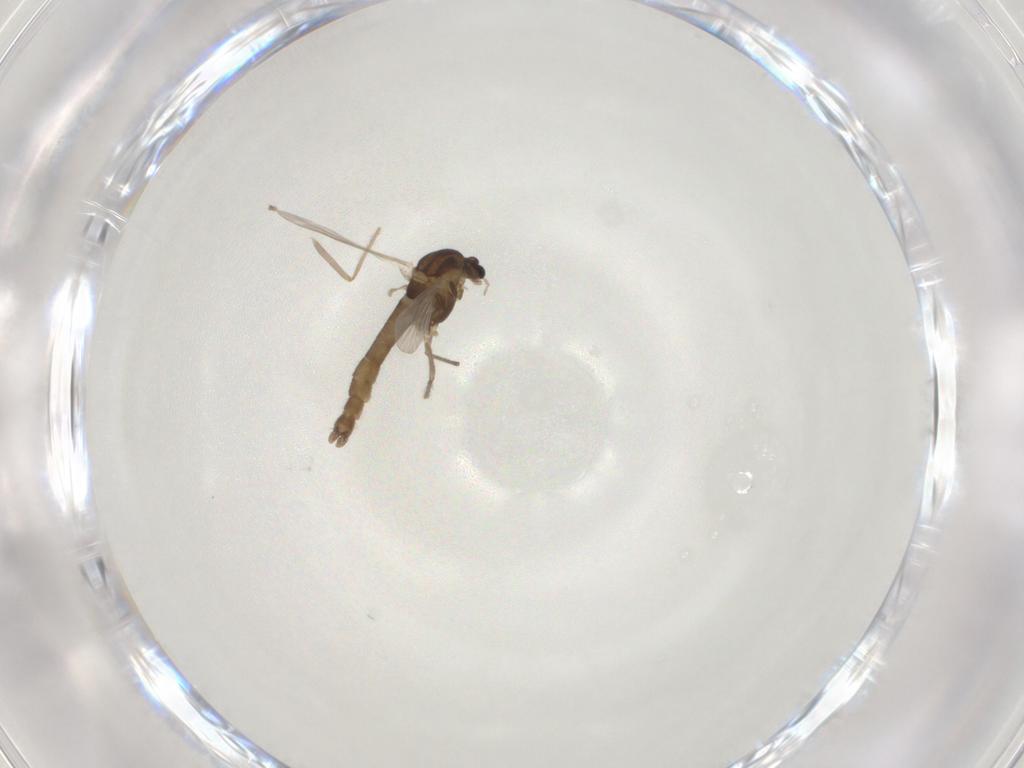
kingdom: Animalia
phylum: Arthropoda
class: Insecta
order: Diptera
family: Chironomidae
